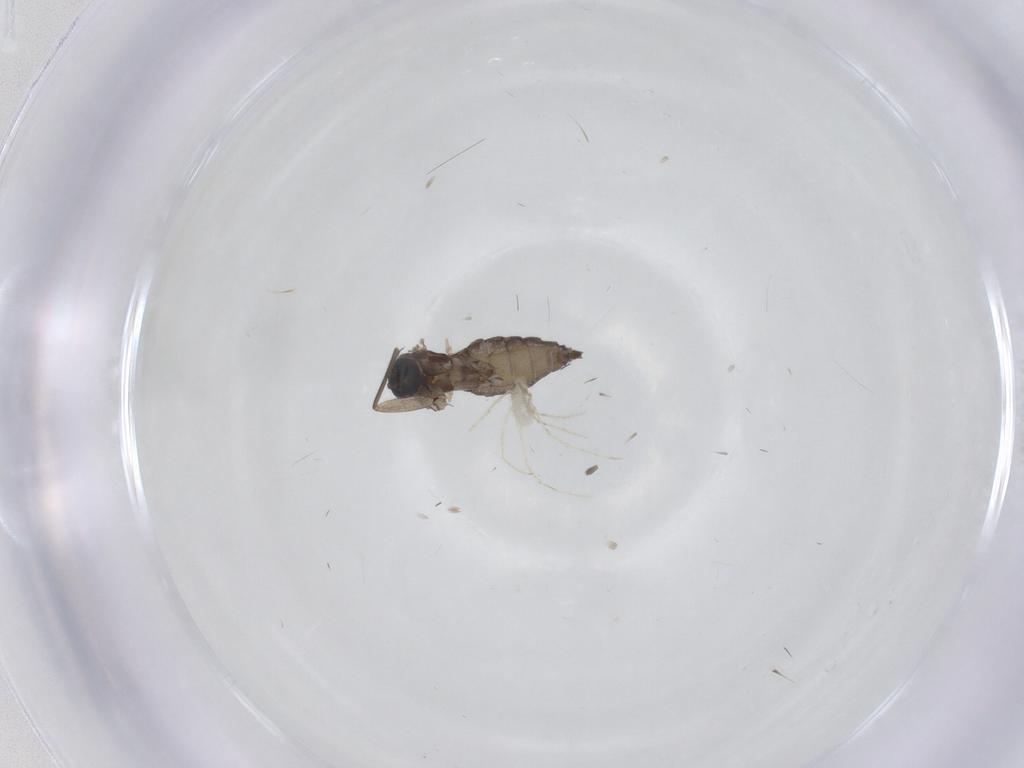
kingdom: Animalia
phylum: Arthropoda
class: Insecta
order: Diptera
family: Sciaridae
